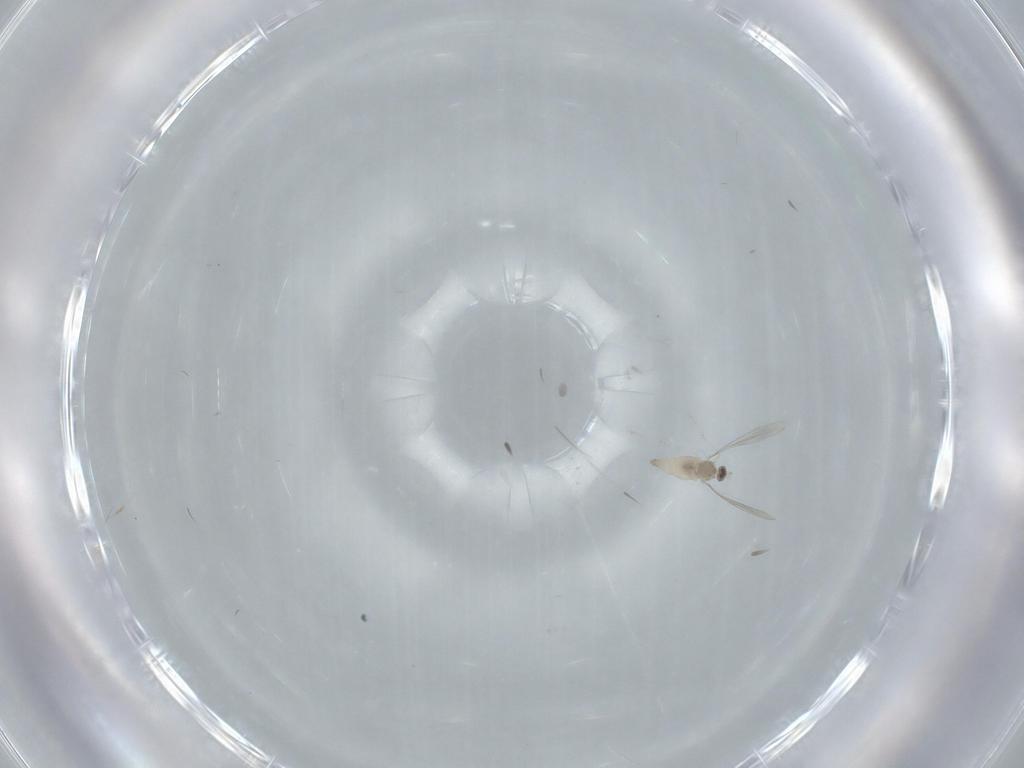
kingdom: Animalia
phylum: Arthropoda
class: Insecta
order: Diptera
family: Cecidomyiidae
